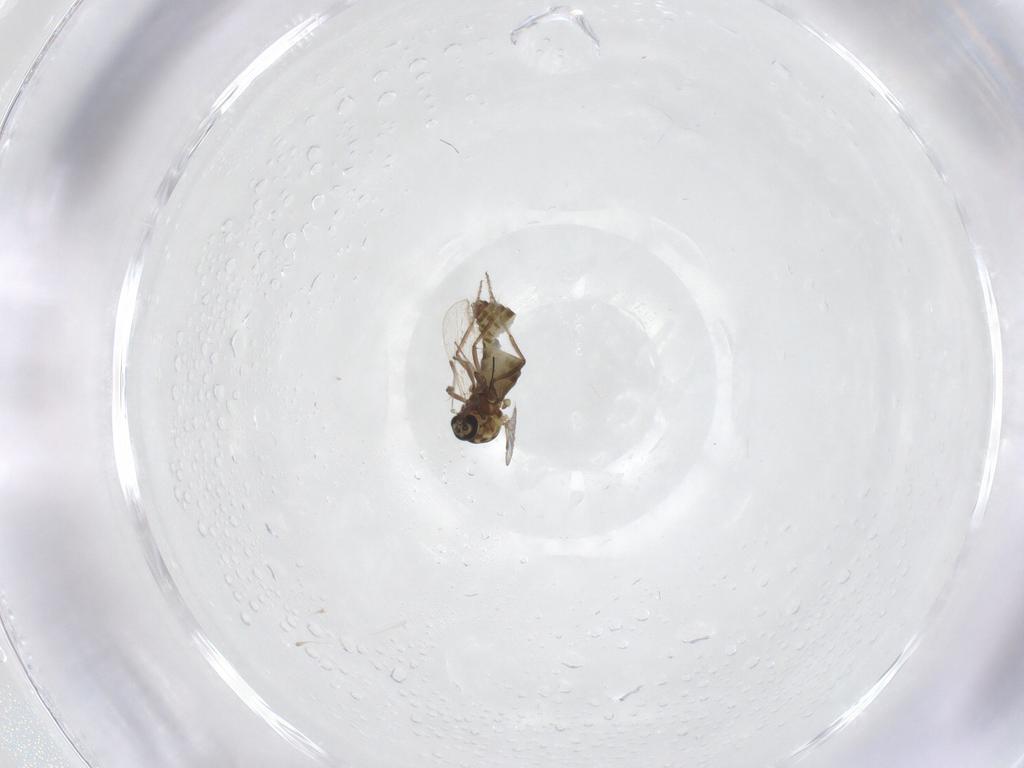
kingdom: Animalia
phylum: Arthropoda
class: Insecta
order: Diptera
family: Ceratopogonidae
